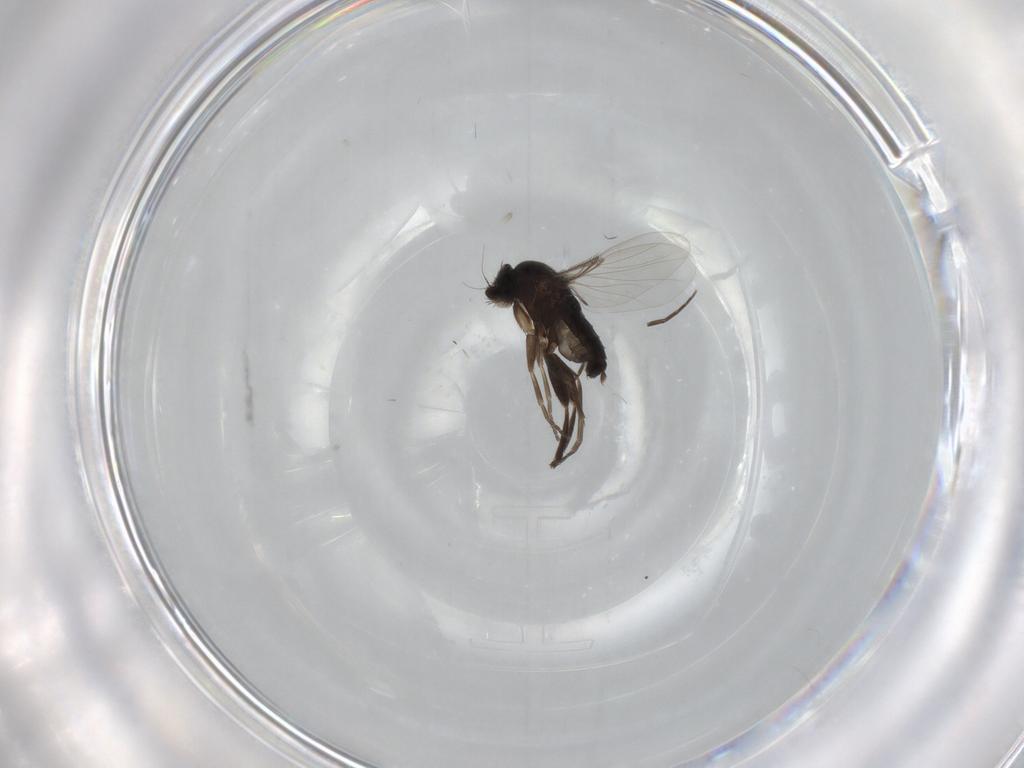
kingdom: Animalia
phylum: Arthropoda
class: Insecta
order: Diptera
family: Phoridae
